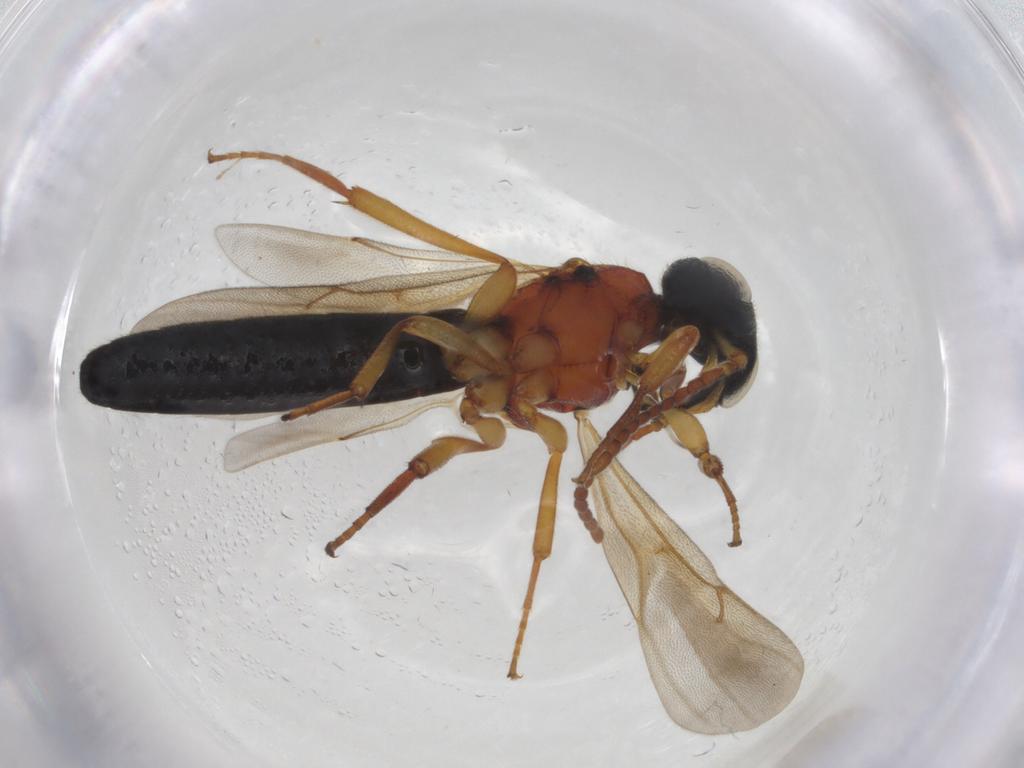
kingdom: Animalia
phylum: Arthropoda
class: Insecta
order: Hymenoptera
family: Scelionidae
